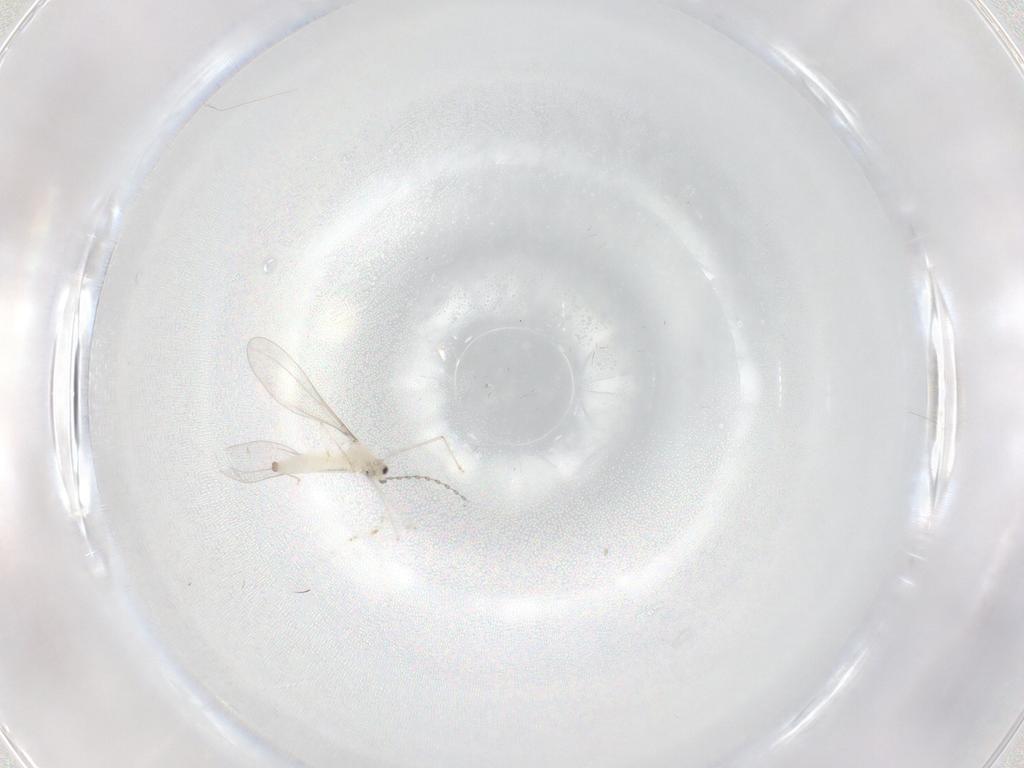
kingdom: Animalia
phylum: Arthropoda
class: Insecta
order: Diptera
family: Cecidomyiidae
